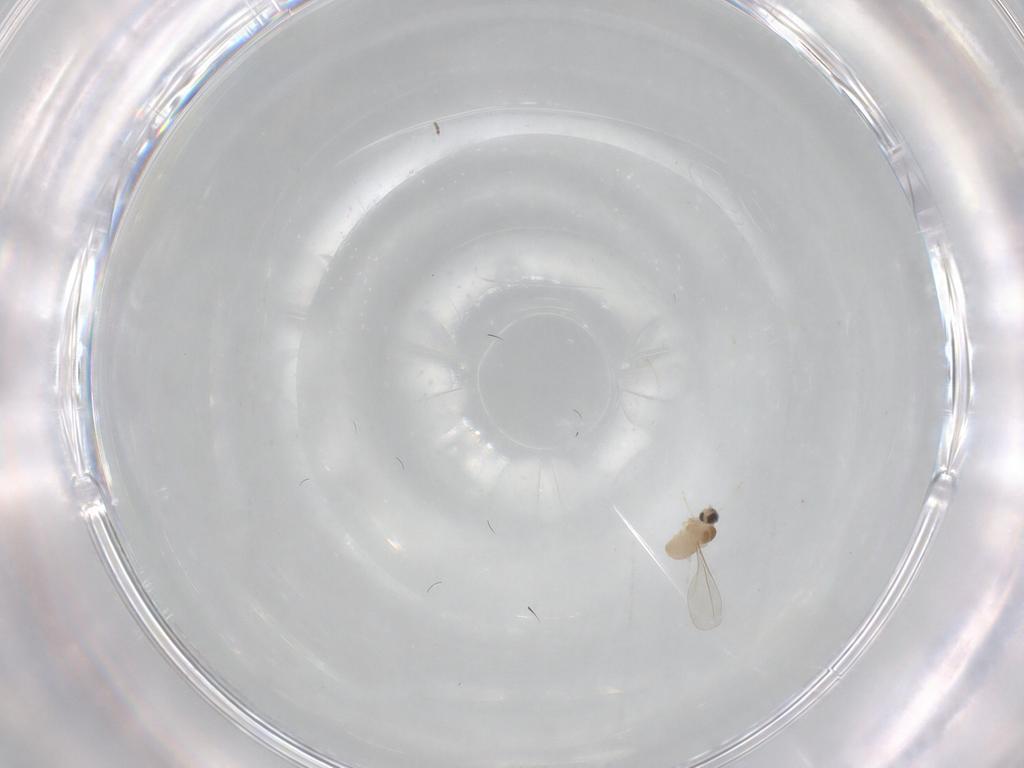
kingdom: Animalia
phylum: Arthropoda
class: Insecta
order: Diptera
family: Cecidomyiidae
